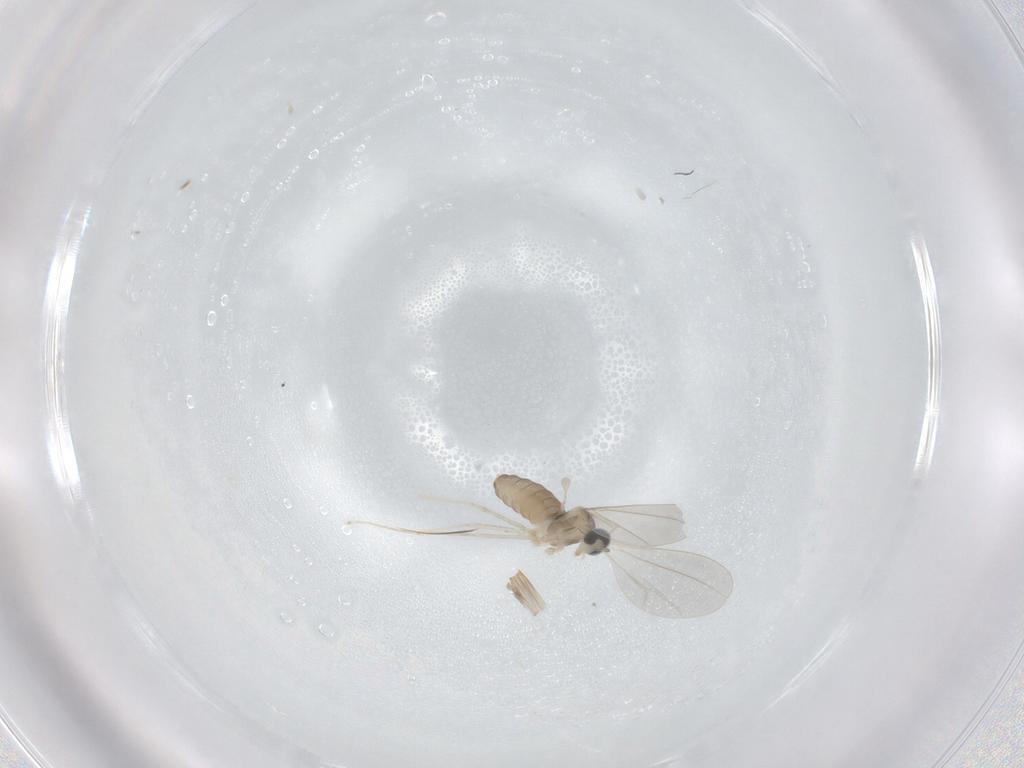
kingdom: Animalia
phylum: Arthropoda
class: Insecta
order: Diptera
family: Cecidomyiidae
